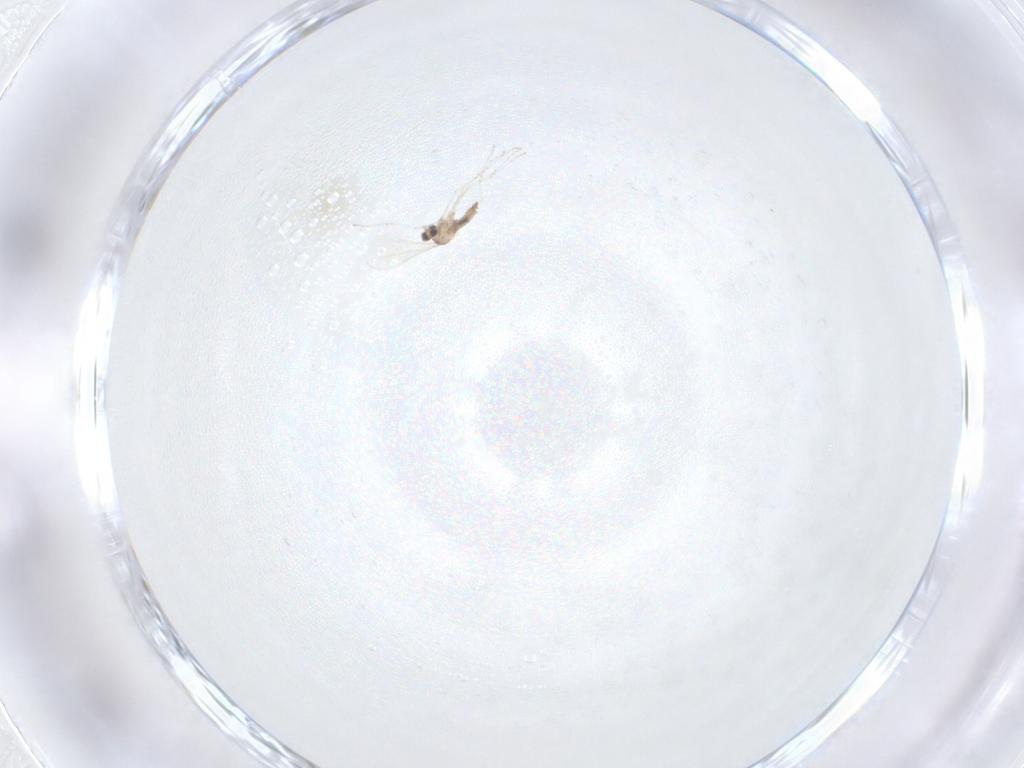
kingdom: Animalia
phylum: Arthropoda
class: Insecta
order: Diptera
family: Cecidomyiidae
